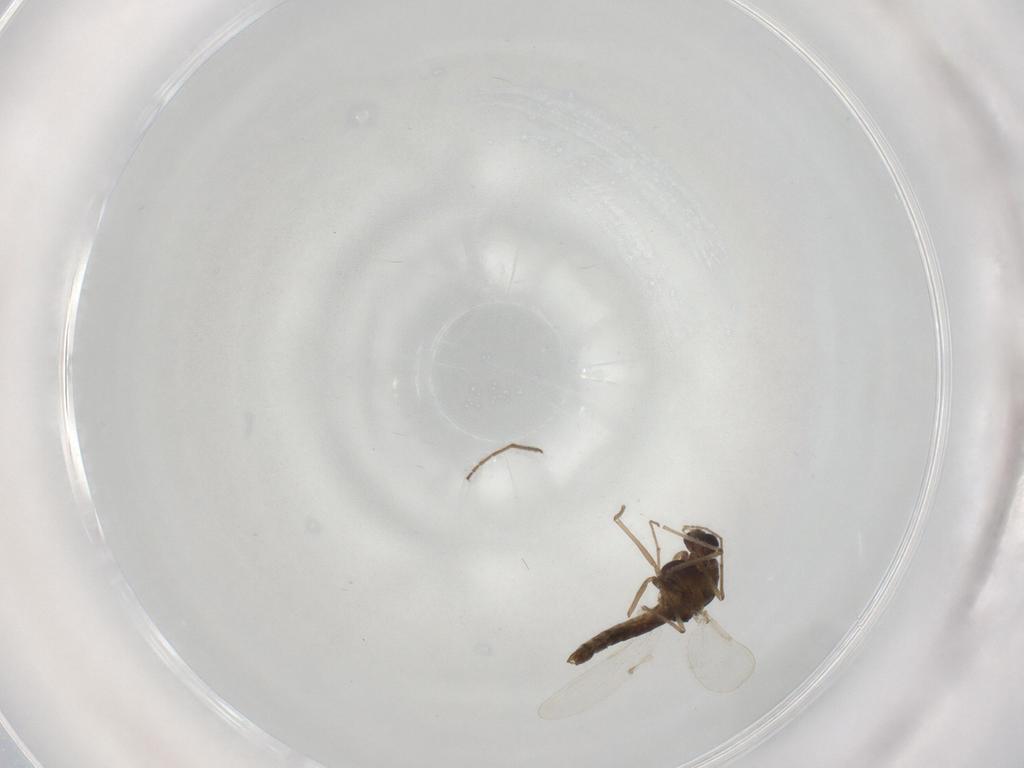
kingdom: Animalia
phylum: Arthropoda
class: Insecta
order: Diptera
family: Chironomidae
